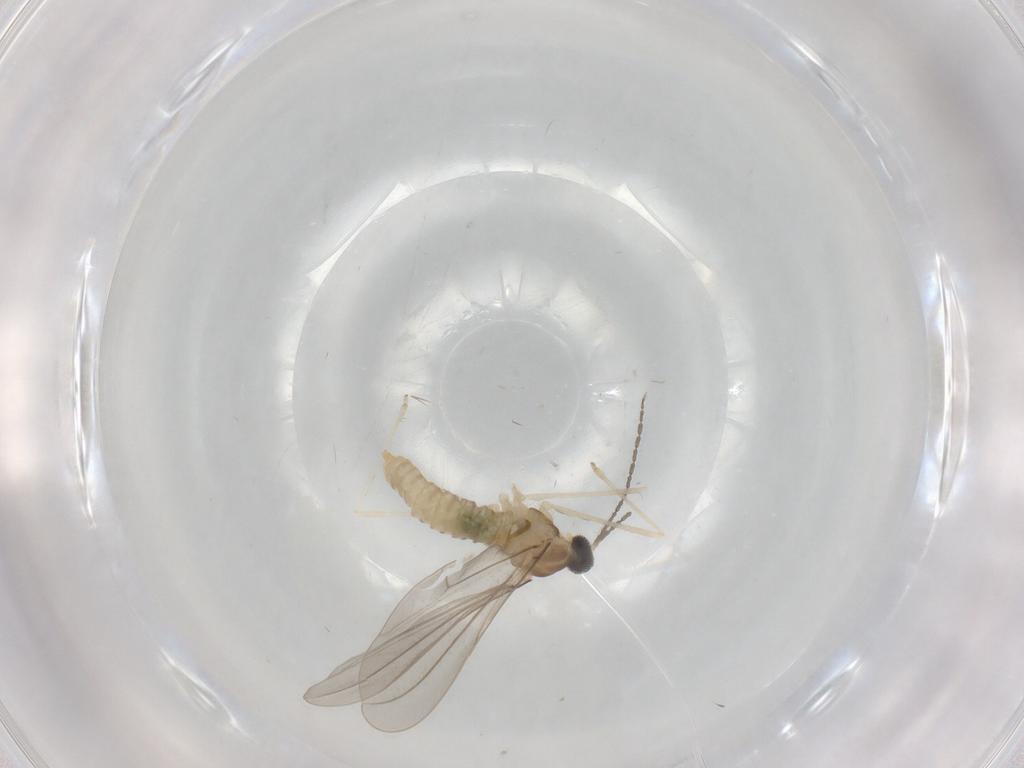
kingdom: Animalia
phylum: Arthropoda
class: Insecta
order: Diptera
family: Cecidomyiidae
